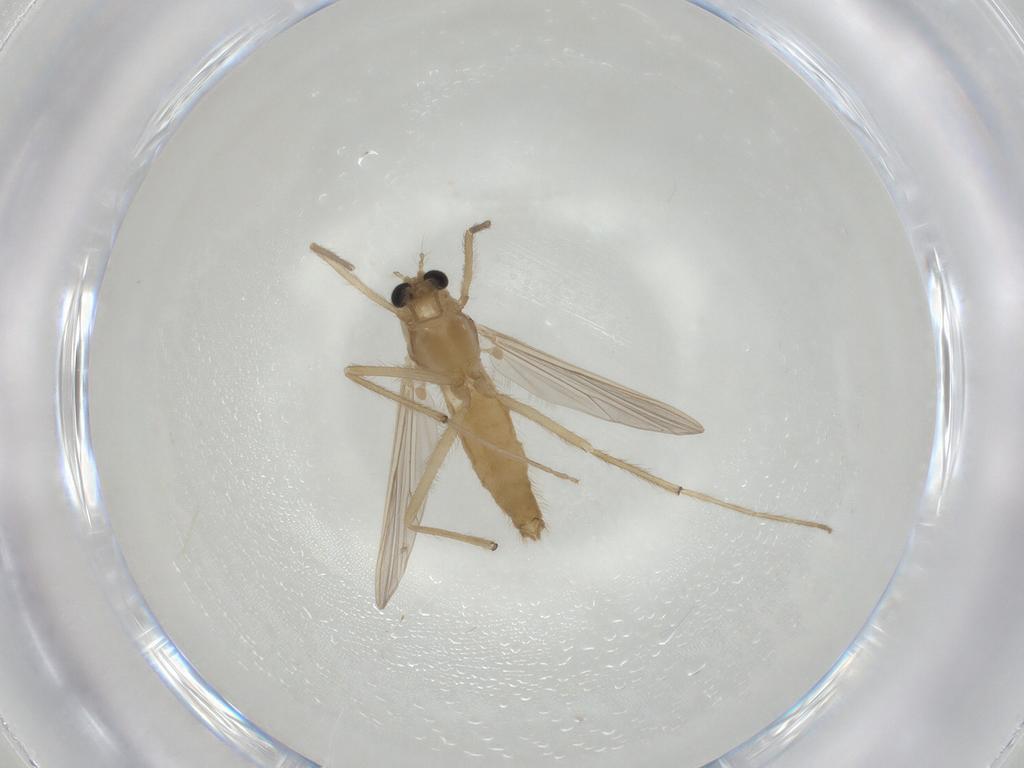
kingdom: Animalia
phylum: Arthropoda
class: Insecta
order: Diptera
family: Chironomidae
